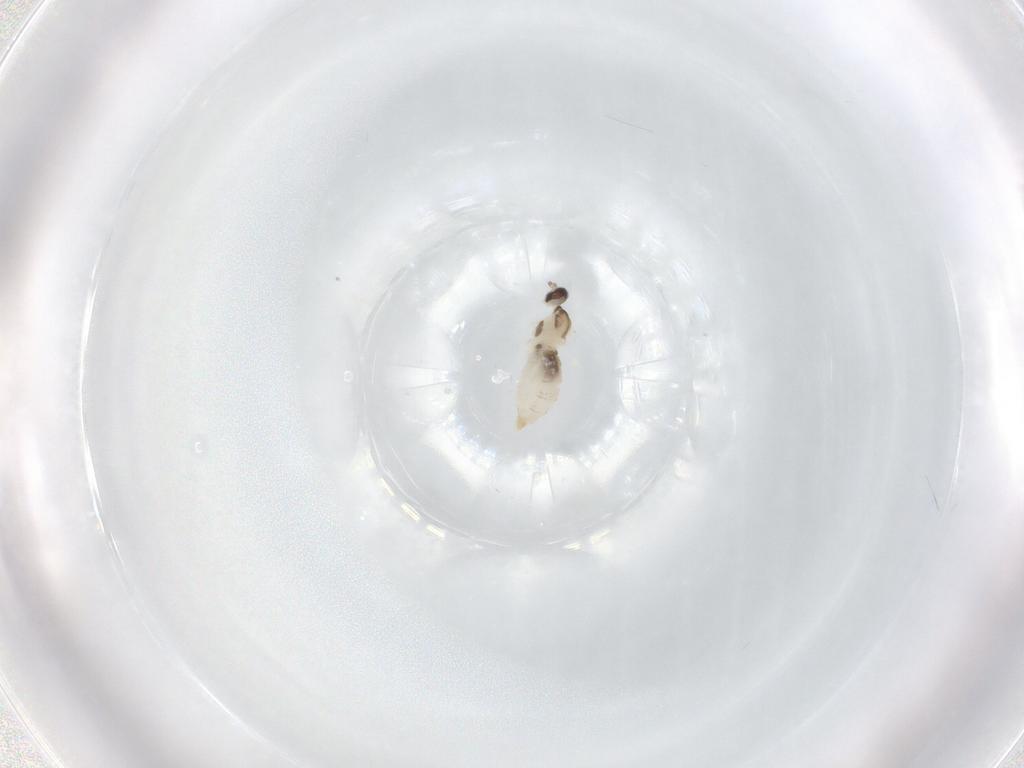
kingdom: Animalia
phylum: Arthropoda
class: Insecta
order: Diptera
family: Cecidomyiidae
